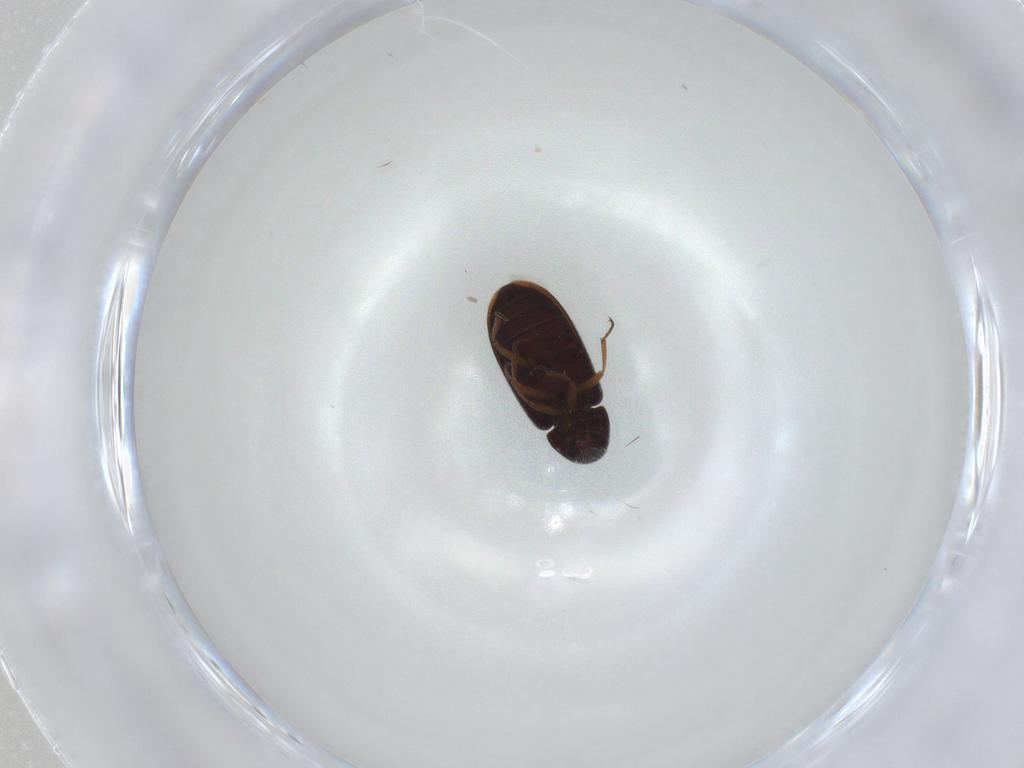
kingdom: Animalia
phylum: Arthropoda
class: Insecta
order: Coleoptera
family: Rhadalidae
